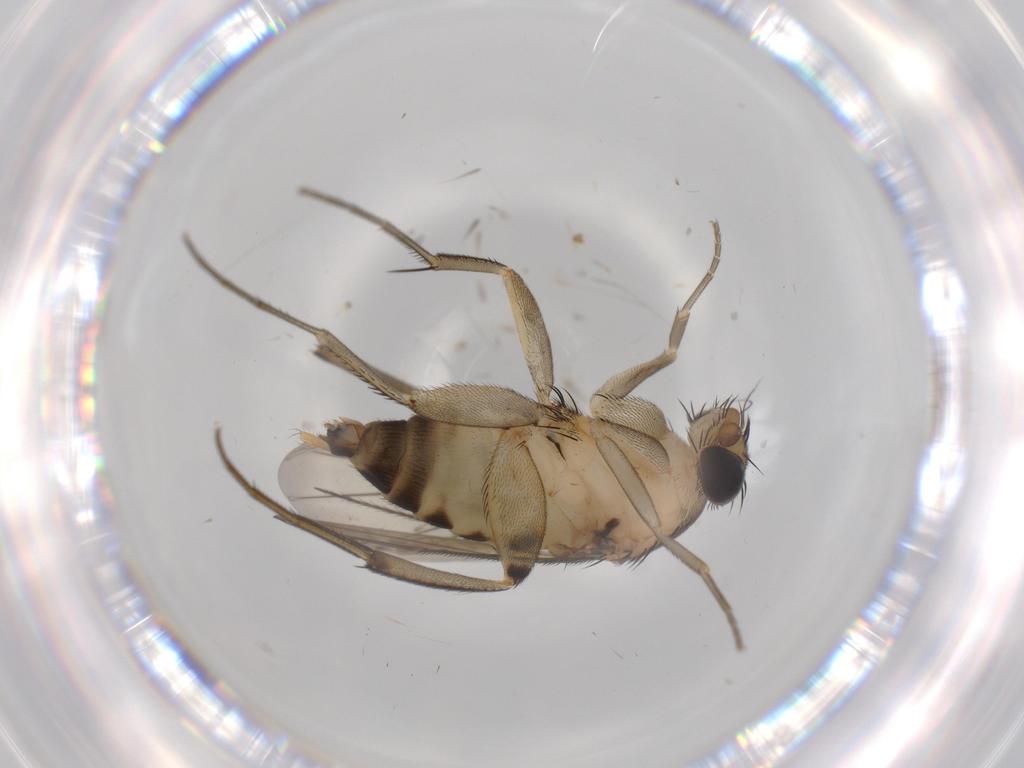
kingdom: Animalia
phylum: Arthropoda
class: Insecta
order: Diptera
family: Phoridae
